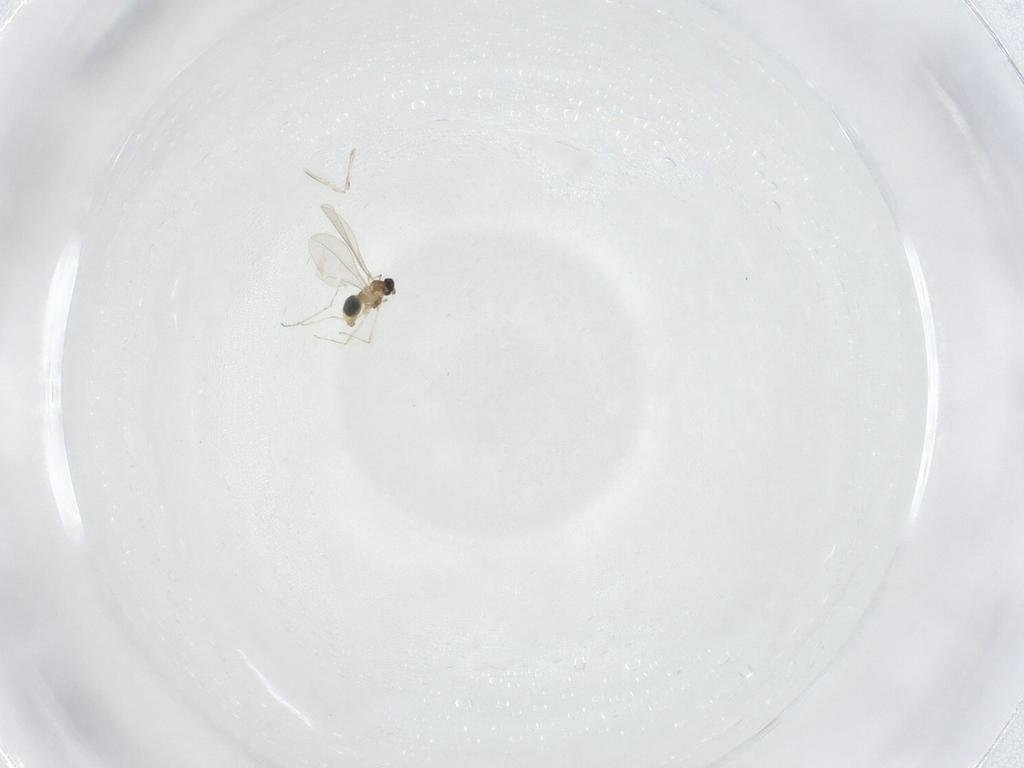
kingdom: Animalia
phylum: Arthropoda
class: Insecta
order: Diptera
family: Cecidomyiidae
